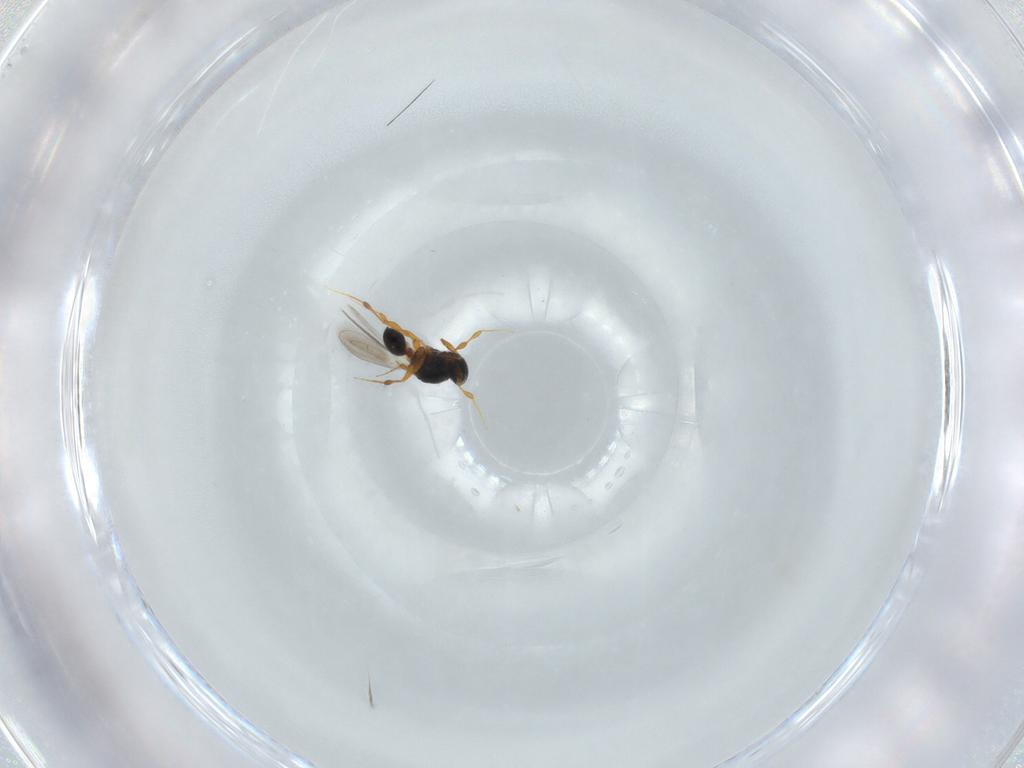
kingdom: Animalia
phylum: Arthropoda
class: Insecta
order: Hymenoptera
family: Platygastridae
